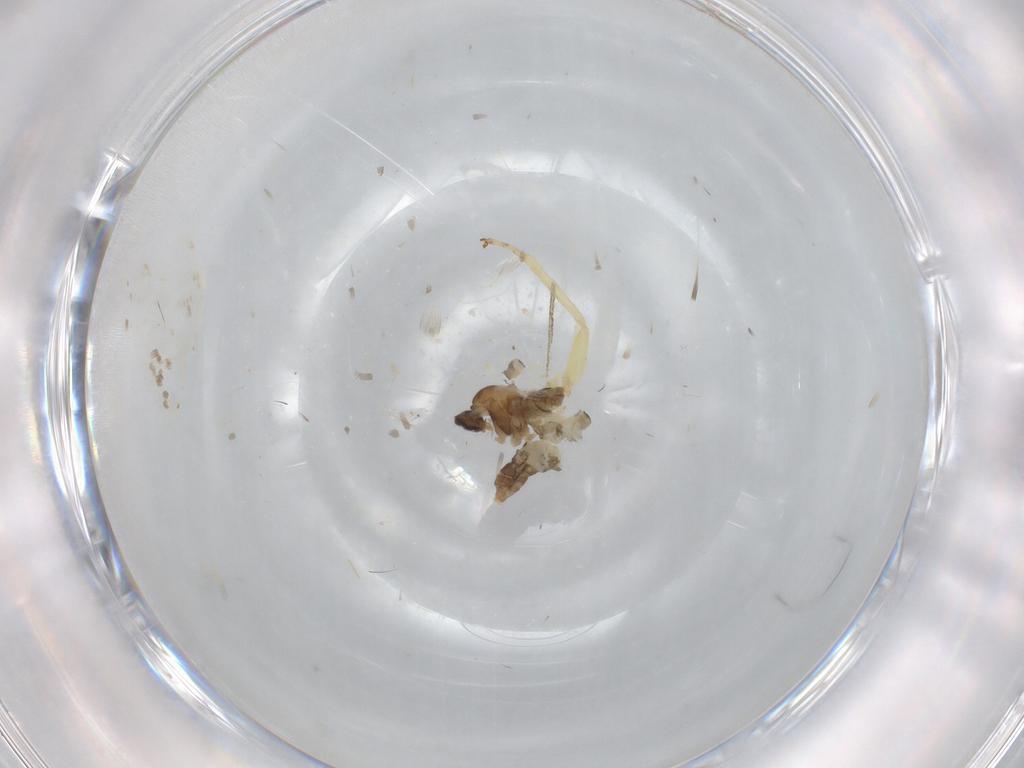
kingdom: Animalia
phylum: Arthropoda
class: Insecta
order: Diptera
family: Cecidomyiidae
